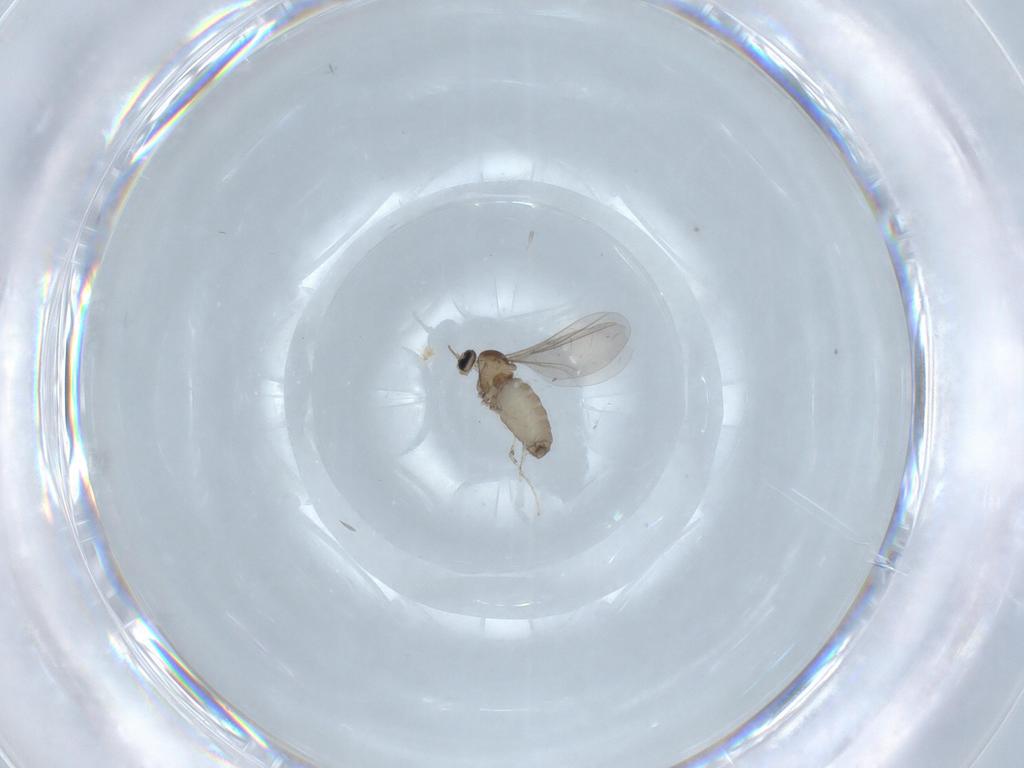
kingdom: Animalia
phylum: Arthropoda
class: Insecta
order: Diptera
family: Cecidomyiidae
